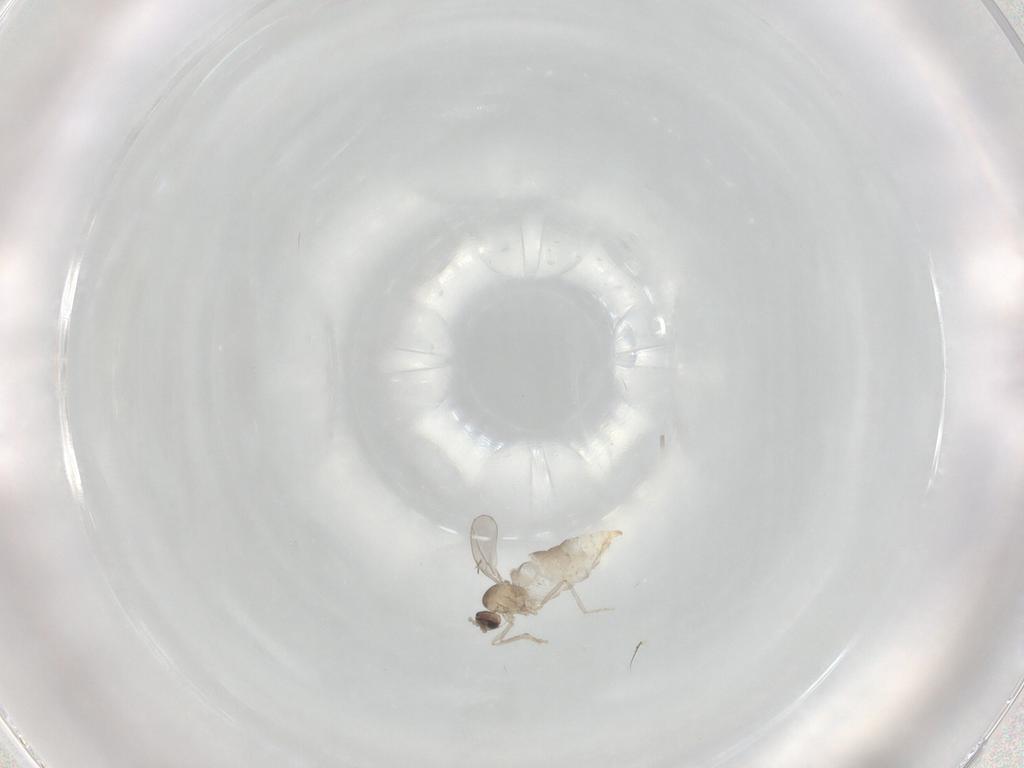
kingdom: Animalia
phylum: Arthropoda
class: Insecta
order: Diptera
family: Cecidomyiidae
